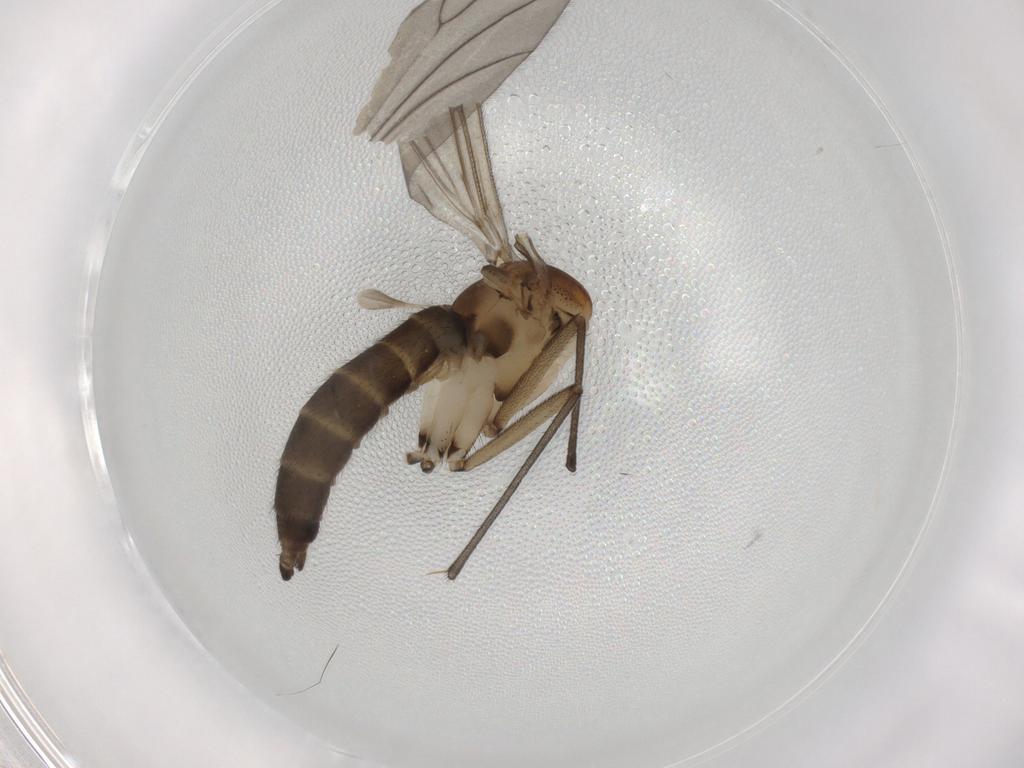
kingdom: Animalia
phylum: Arthropoda
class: Insecta
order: Diptera
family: Sciaridae
